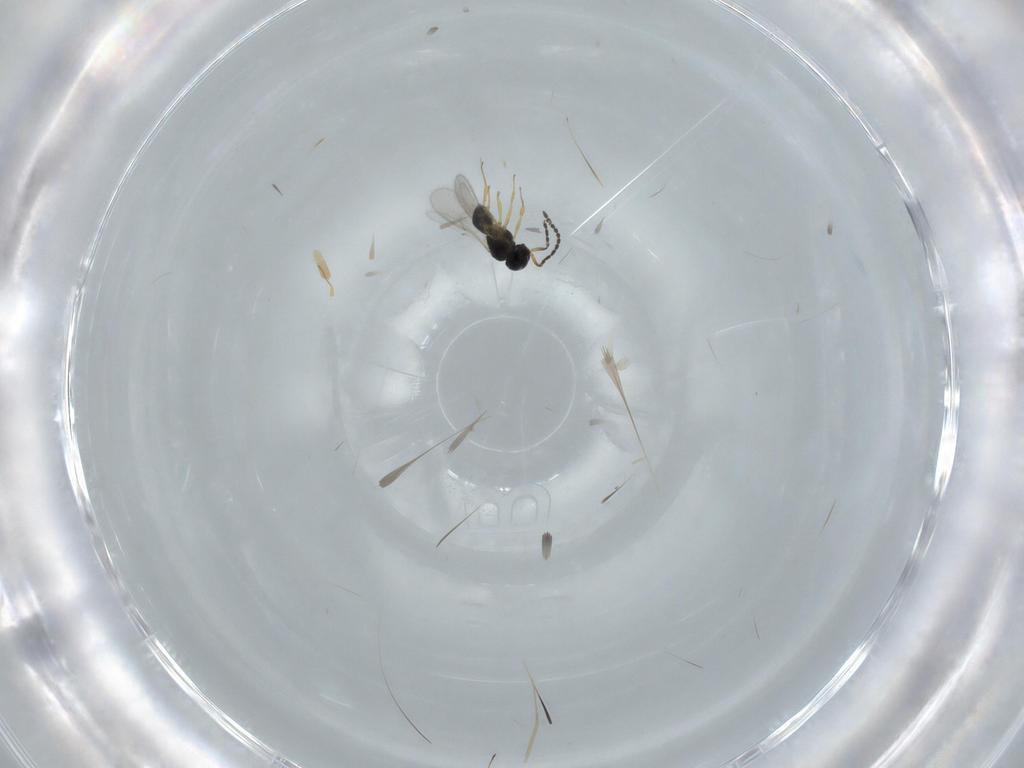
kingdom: Animalia
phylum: Arthropoda
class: Insecta
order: Hymenoptera
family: Scelionidae
